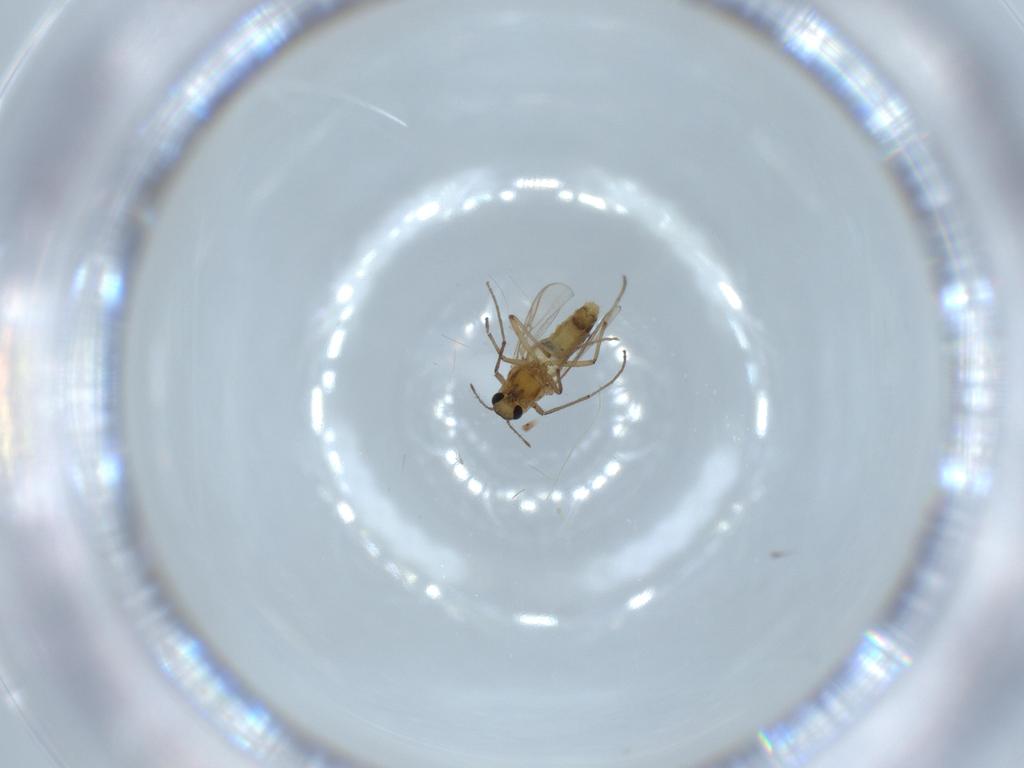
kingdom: Animalia
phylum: Arthropoda
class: Insecta
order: Diptera
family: Chironomidae
